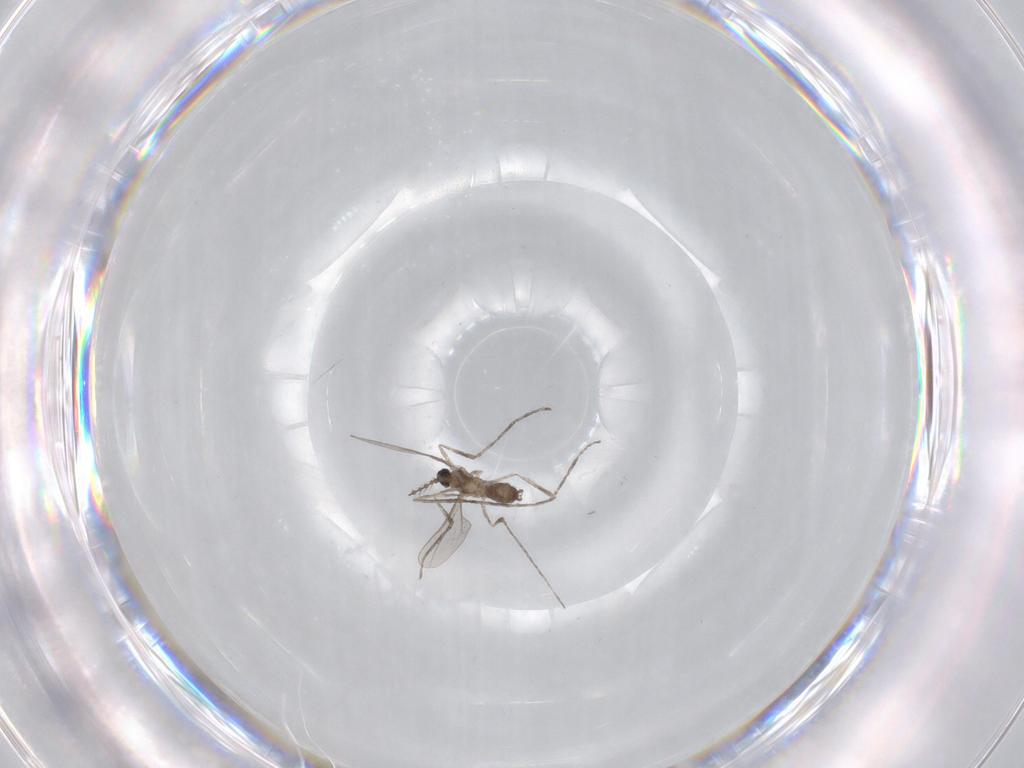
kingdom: Animalia
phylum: Arthropoda
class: Insecta
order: Diptera
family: Cecidomyiidae
